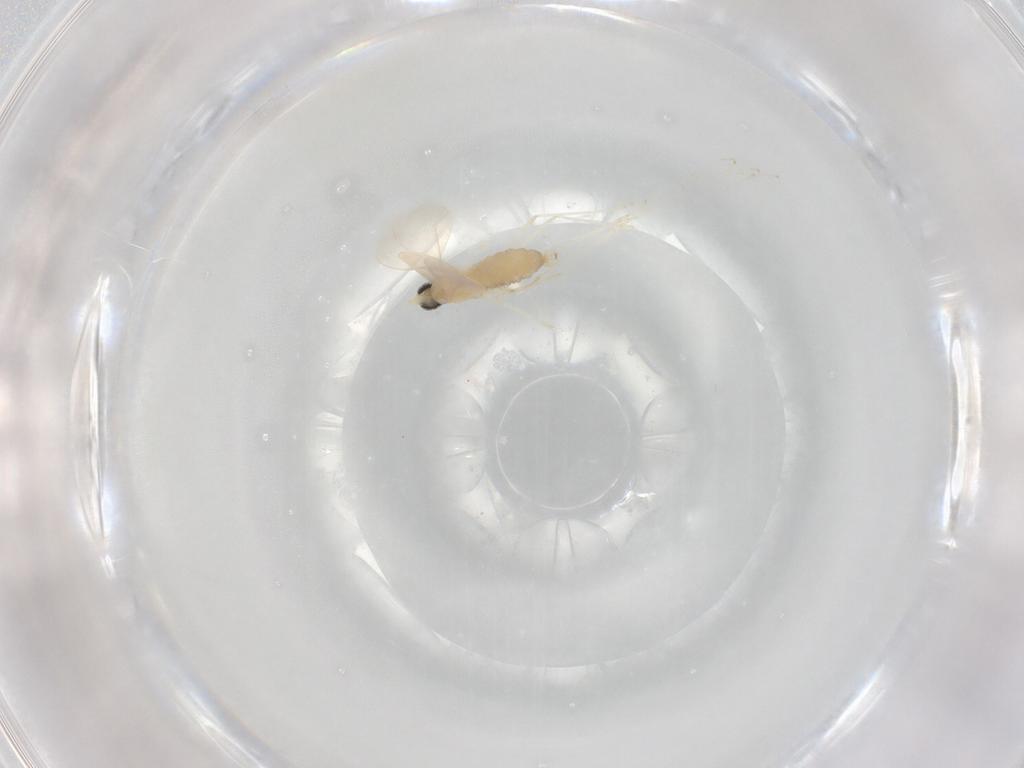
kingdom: Animalia
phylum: Arthropoda
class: Insecta
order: Diptera
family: Cecidomyiidae
